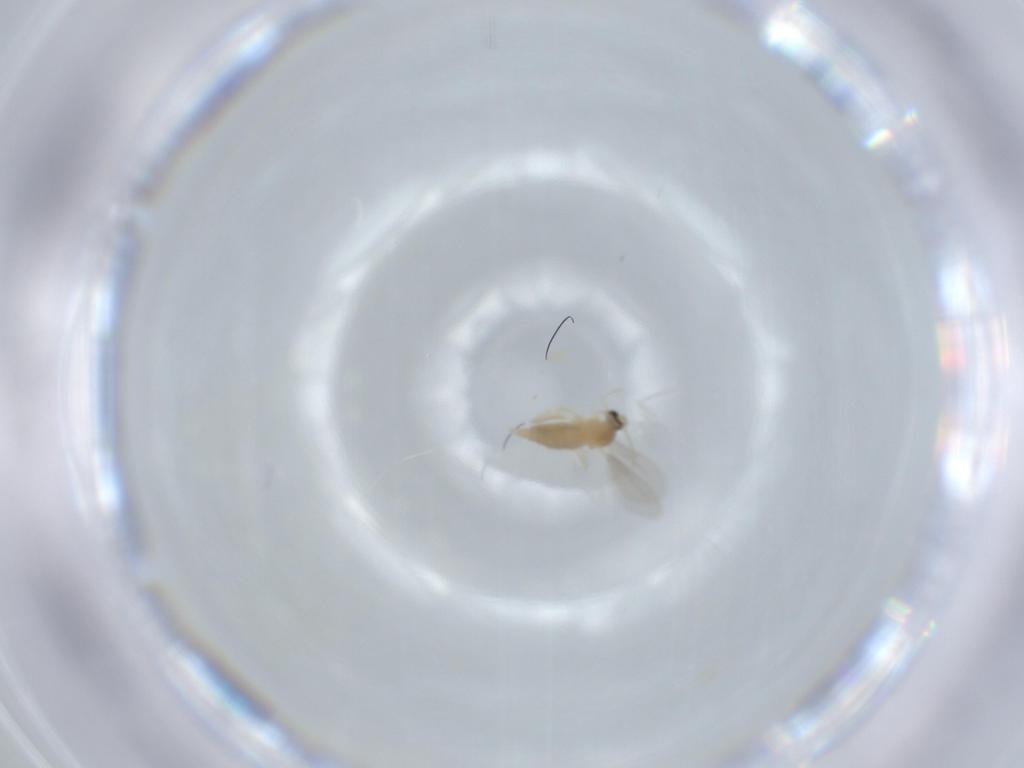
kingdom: Animalia
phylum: Arthropoda
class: Insecta
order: Diptera
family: Cecidomyiidae
